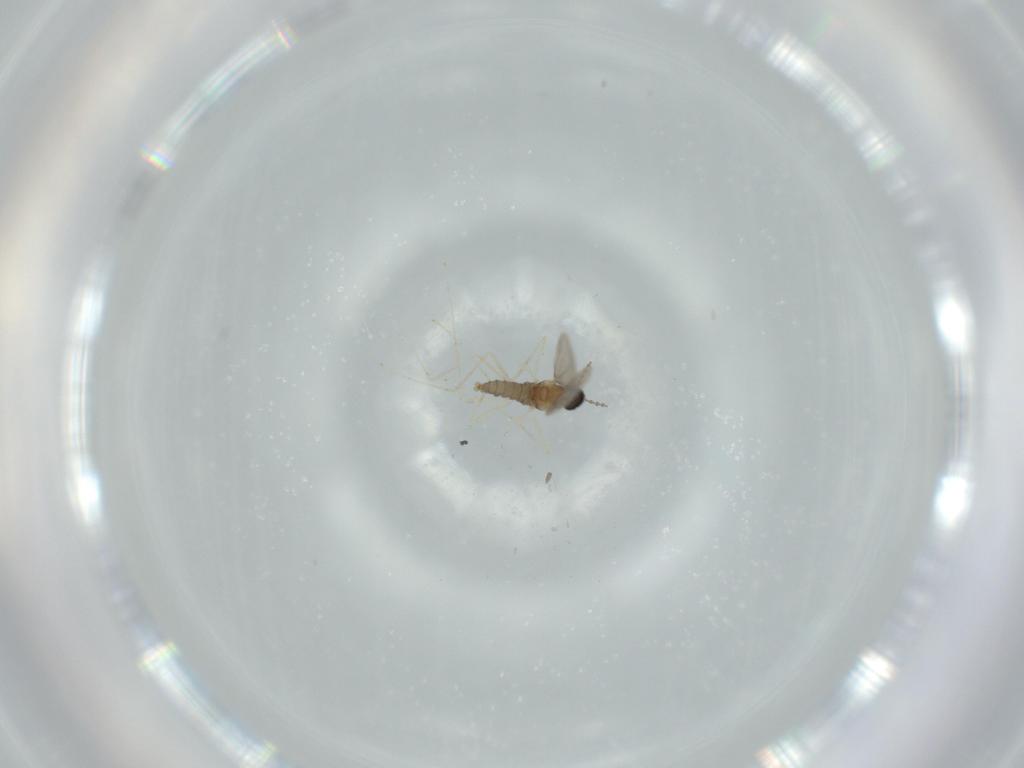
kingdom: Animalia
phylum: Arthropoda
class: Insecta
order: Diptera
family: Cecidomyiidae
